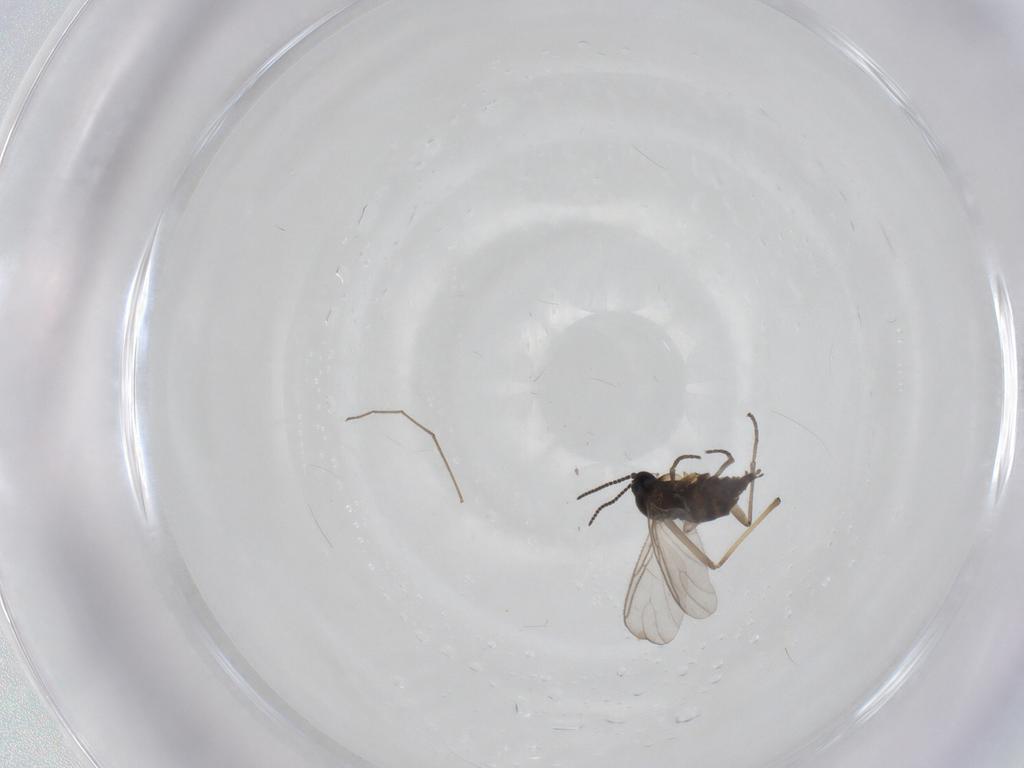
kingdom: Animalia
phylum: Arthropoda
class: Insecta
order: Diptera
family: Sciaridae
